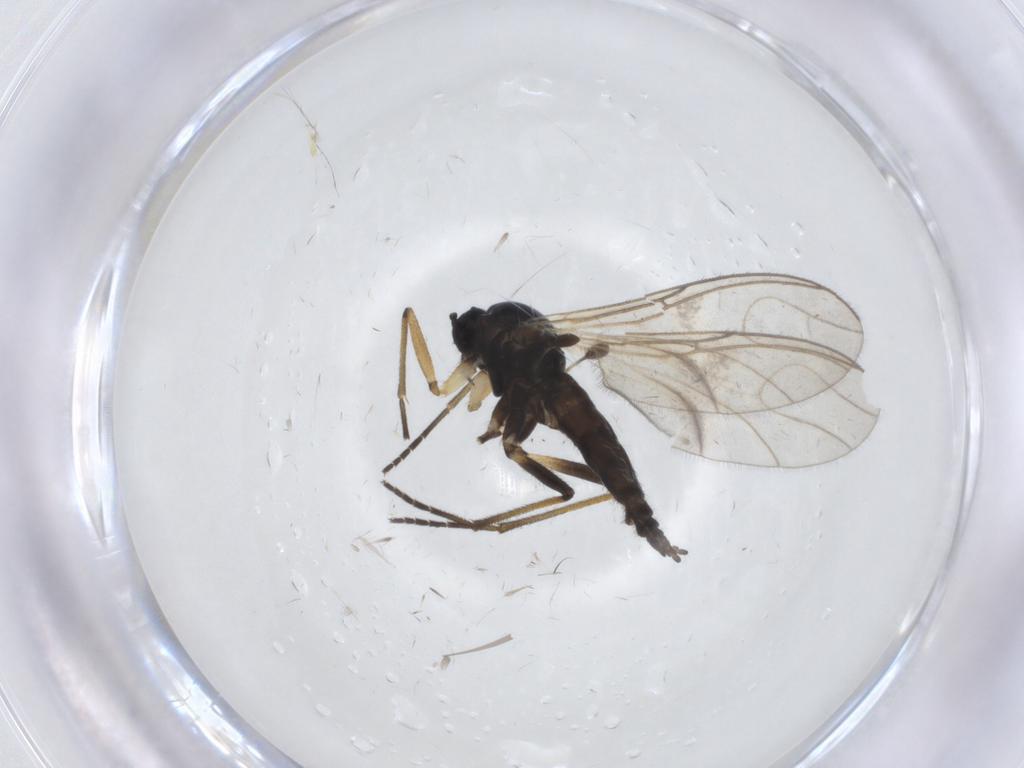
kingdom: Animalia
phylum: Arthropoda
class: Insecta
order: Diptera
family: Sciaridae
